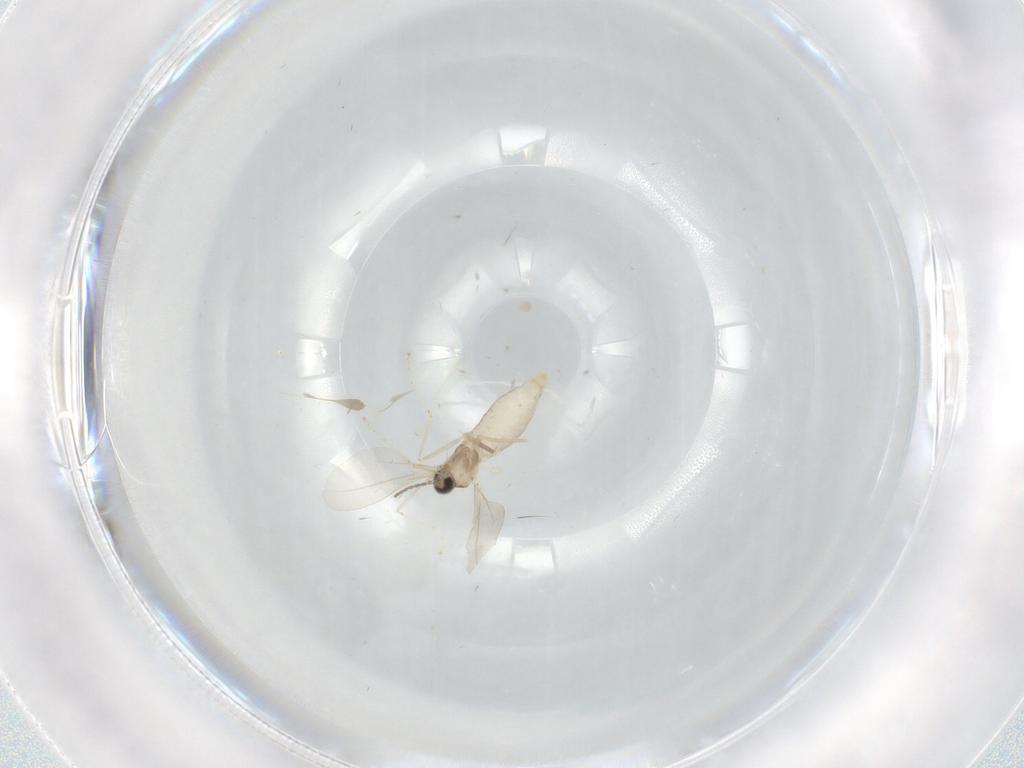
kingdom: Animalia
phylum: Arthropoda
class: Insecta
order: Diptera
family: Cecidomyiidae
